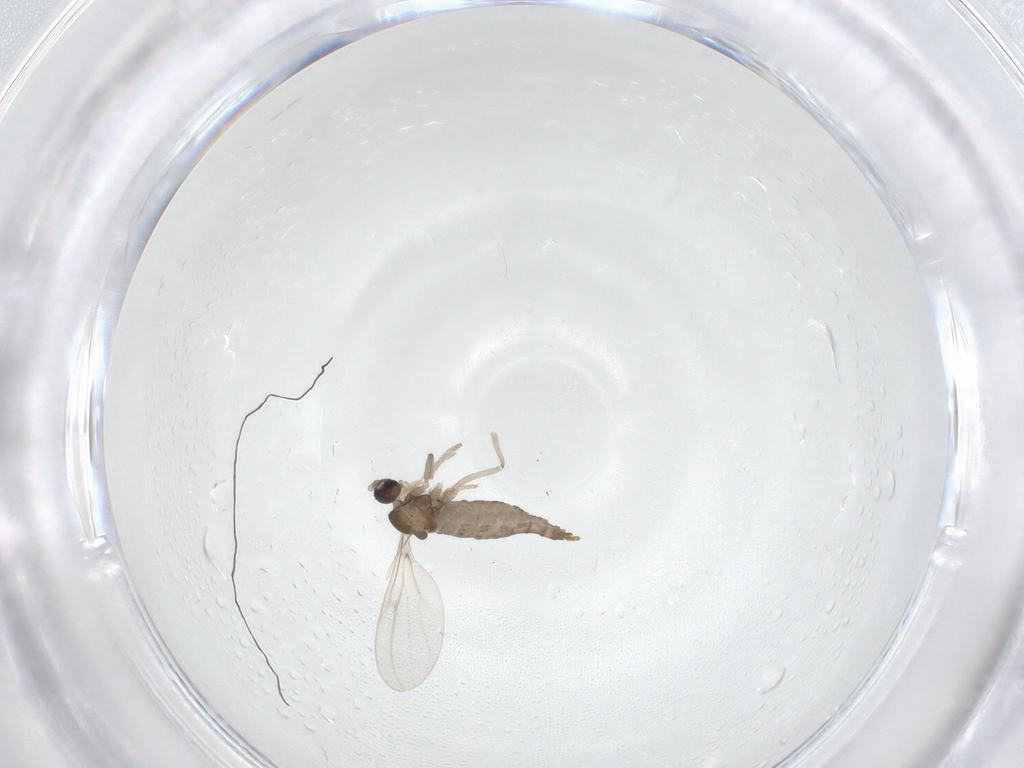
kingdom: Animalia
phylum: Arthropoda
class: Insecta
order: Diptera
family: Cecidomyiidae
